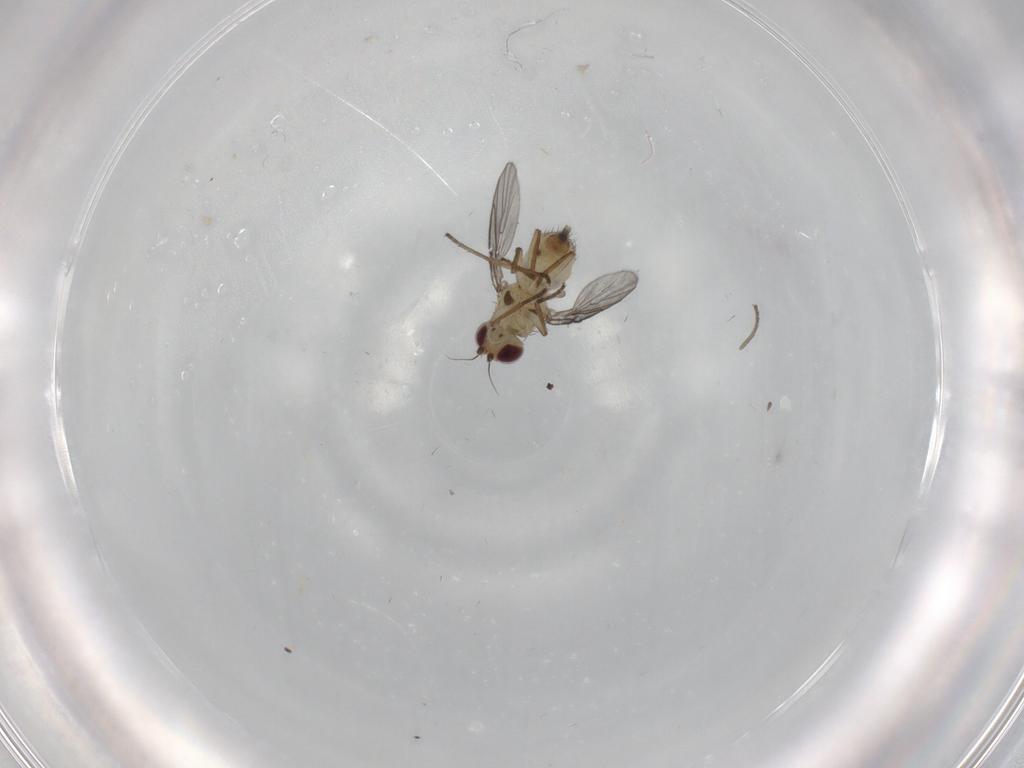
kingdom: Animalia
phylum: Arthropoda
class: Insecta
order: Diptera
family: Agromyzidae
